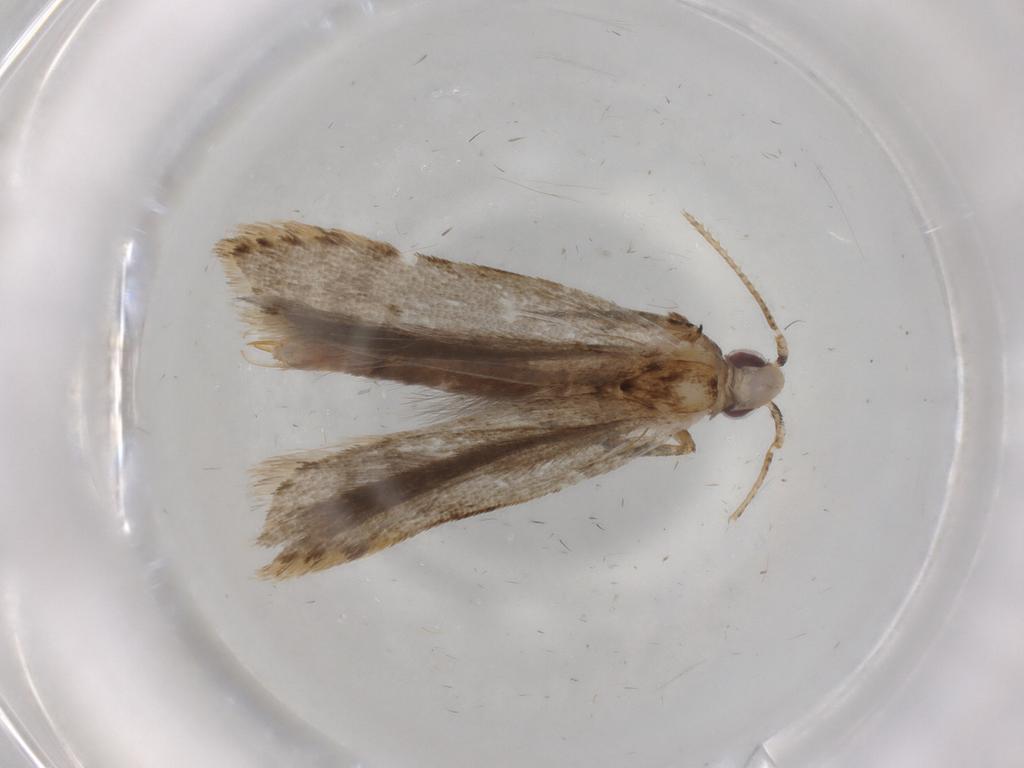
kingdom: Animalia
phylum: Arthropoda
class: Insecta
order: Lepidoptera
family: Gelechiidae
